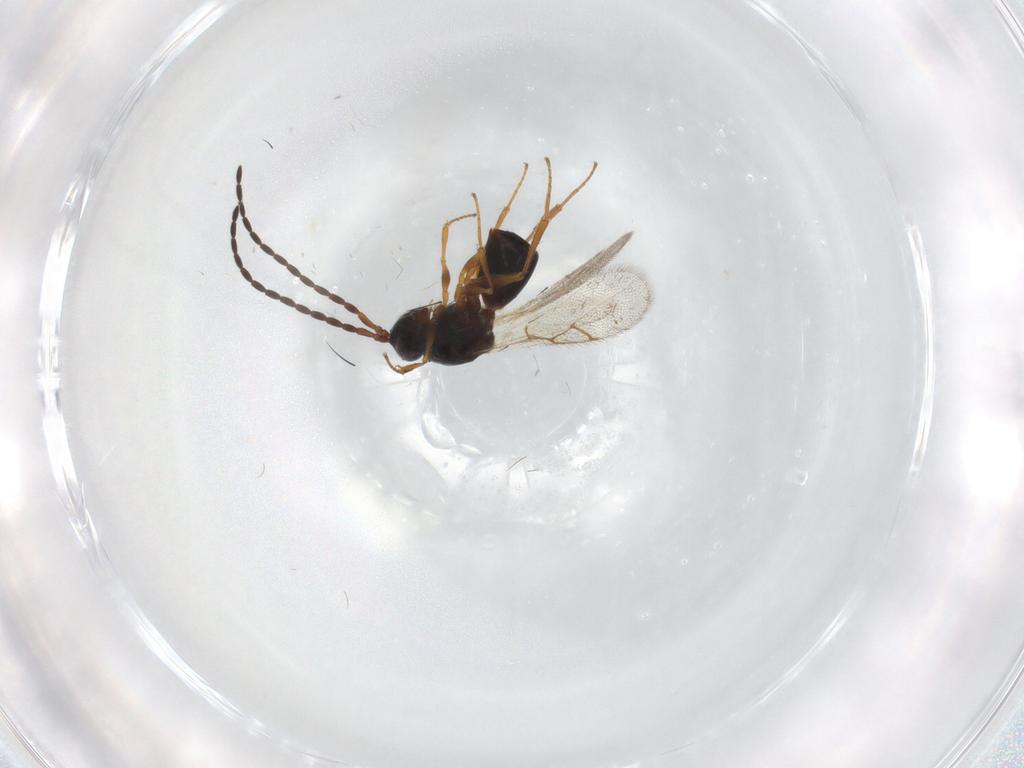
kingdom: Animalia
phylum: Arthropoda
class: Insecta
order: Hymenoptera
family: Figitidae
